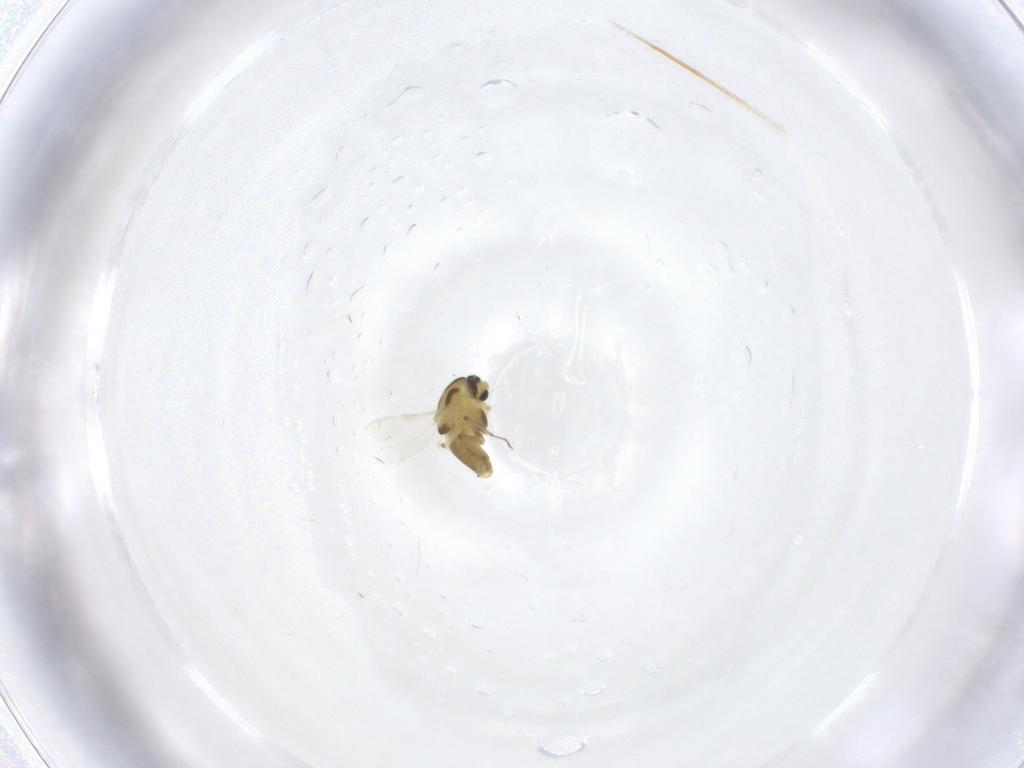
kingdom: Animalia
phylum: Arthropoda
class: Insecta
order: Diptera
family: Chironomidae
